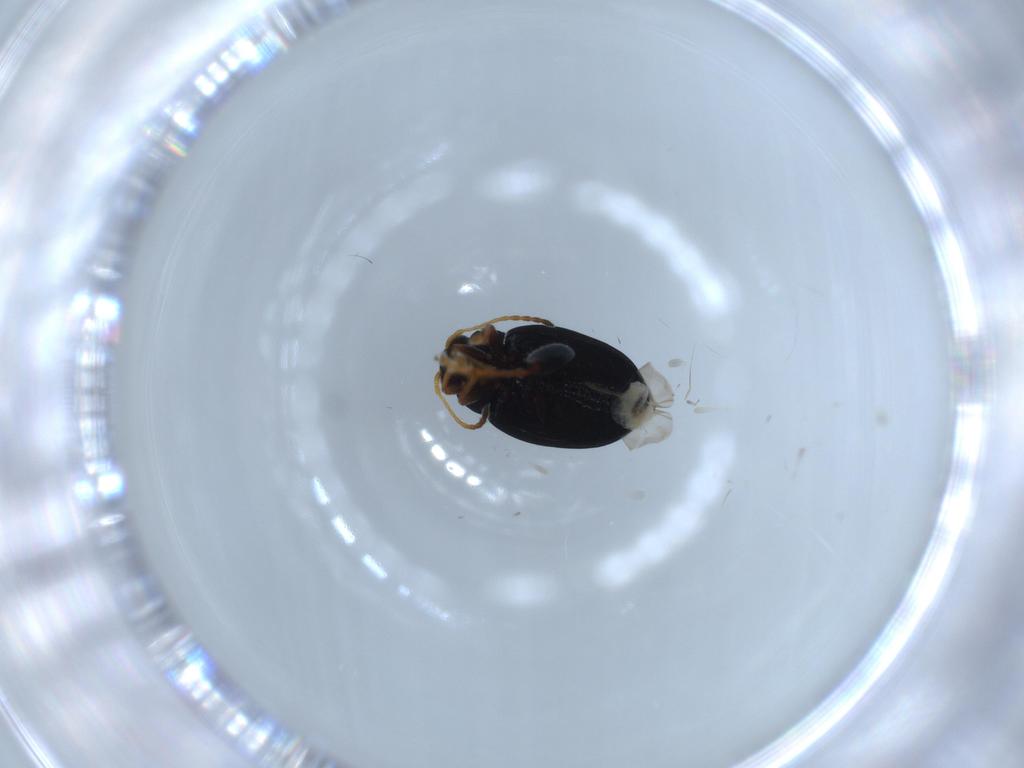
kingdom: Animalia
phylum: Arthropoda
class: Insecta
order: Coleoptera
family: Chrysomelidae
